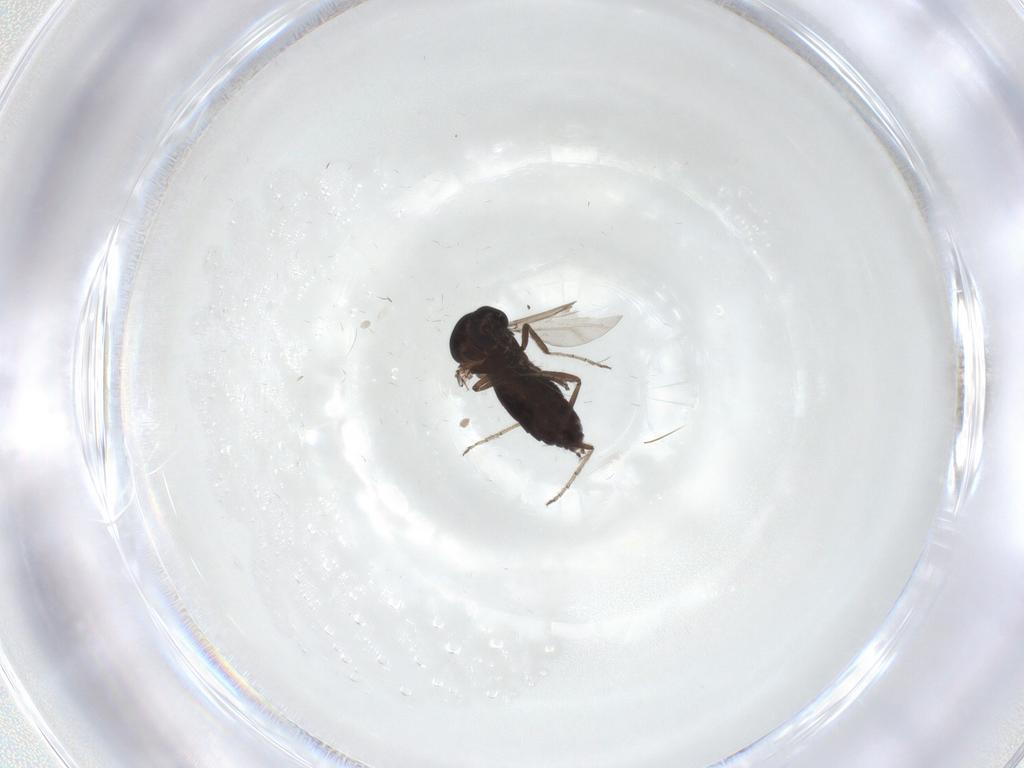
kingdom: Animalia
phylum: Arthropoda
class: Insecta
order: Diptera
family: Ceratopogonidae
